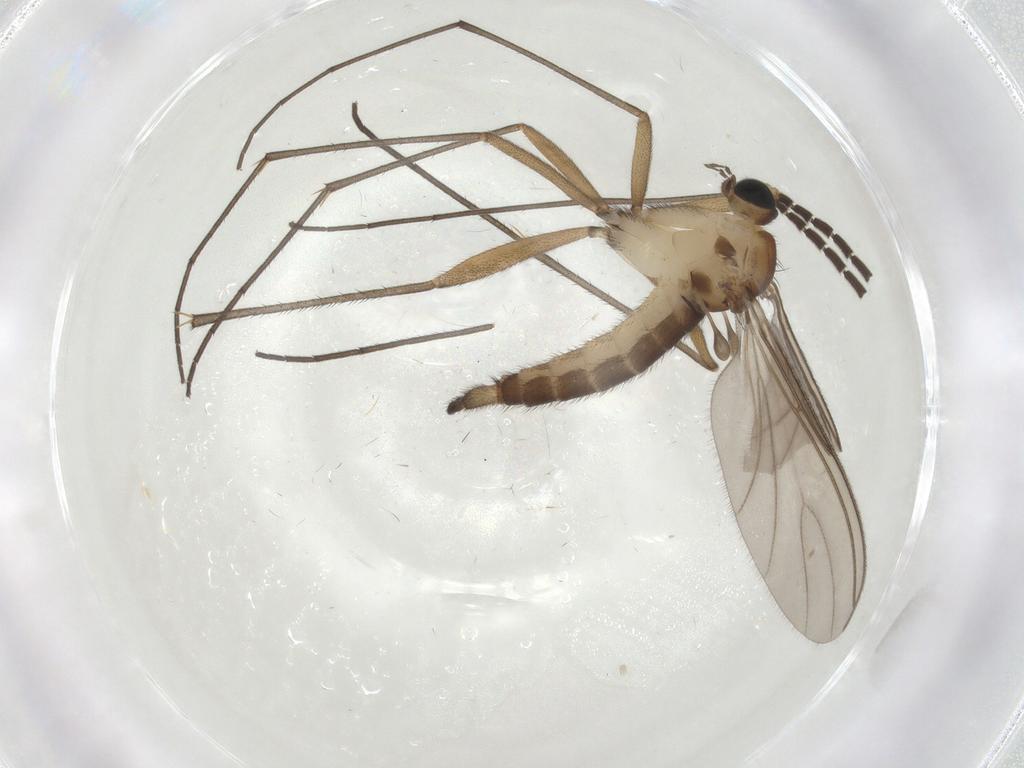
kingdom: Animalia
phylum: Arthropoda
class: Insecta
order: Diptera
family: Sciaridae
